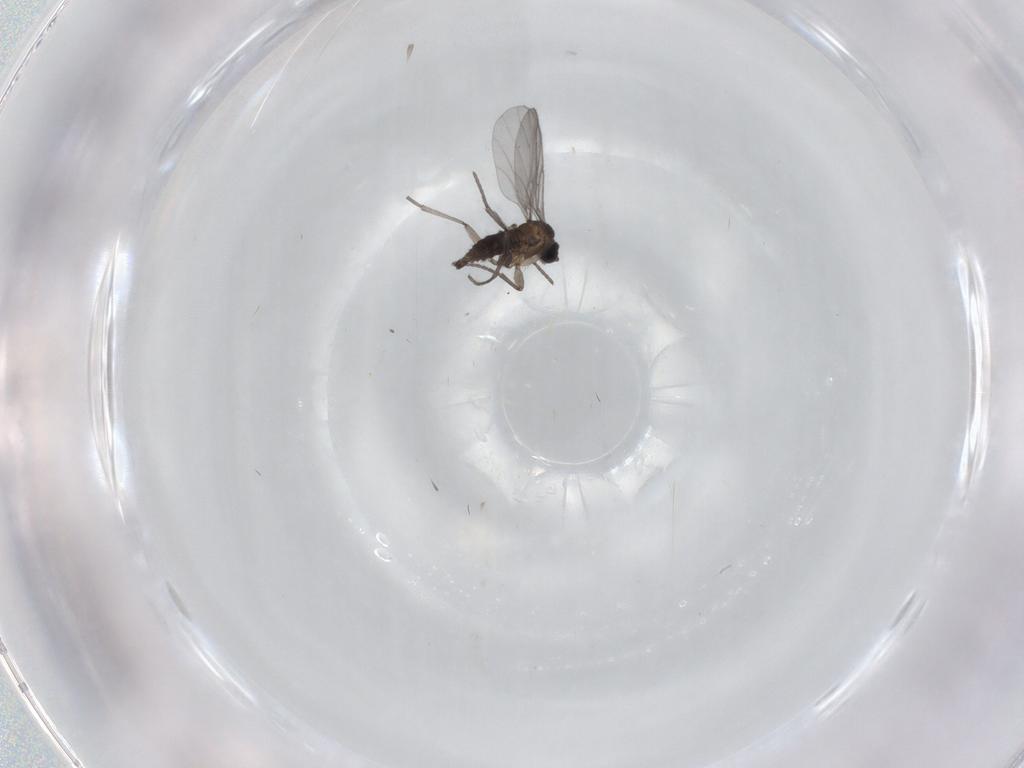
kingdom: Animalia
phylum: Arthropoda
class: Insecta
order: Diptera
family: Sciaridae
